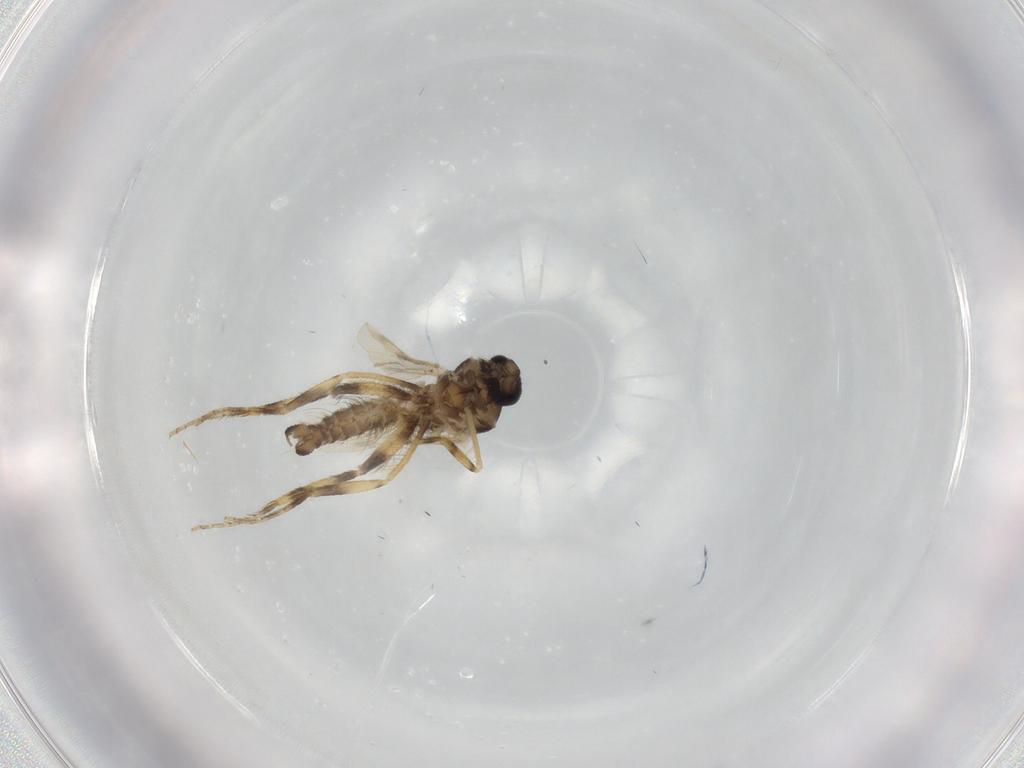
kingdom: Animalia
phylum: Arthropoda
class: Insecta
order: Diptera
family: Ceratopogonidae
